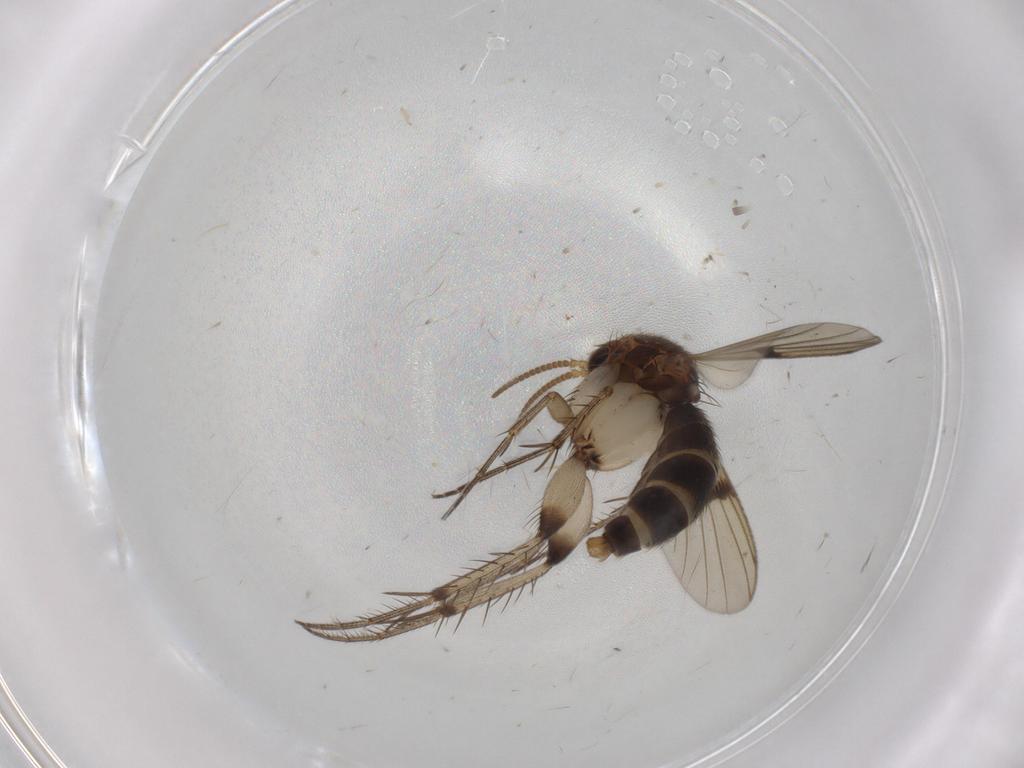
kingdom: Animalia
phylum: Arthropoda
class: Insecta
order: Diptera
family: Mycetophilidae
